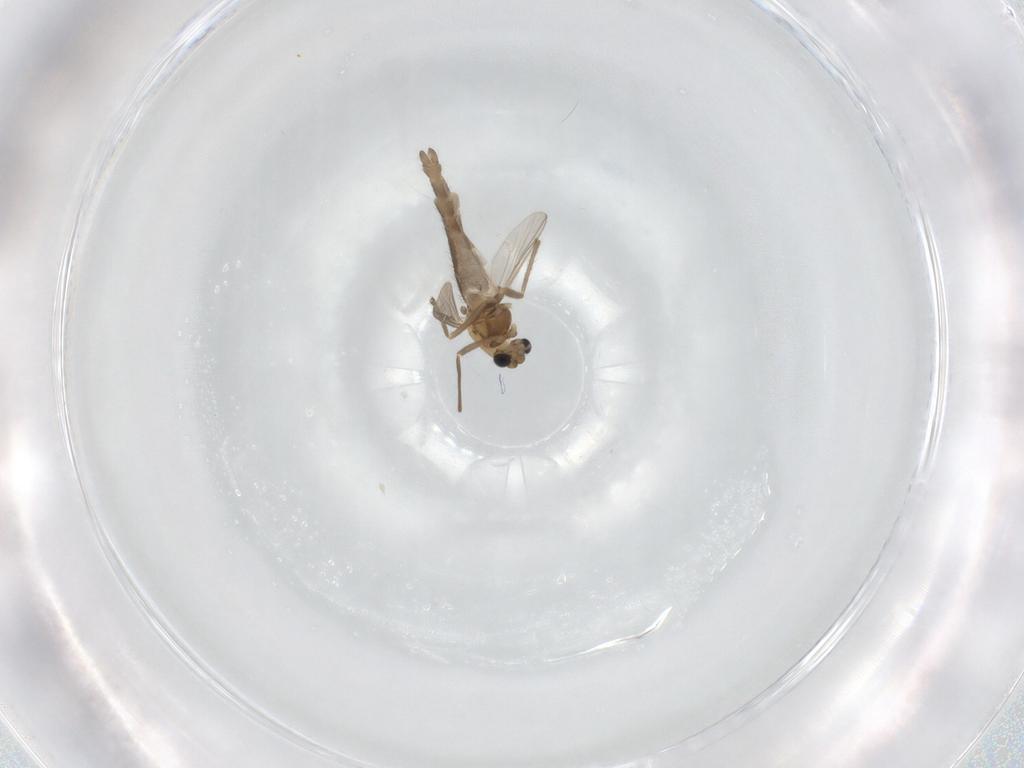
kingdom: Animalia
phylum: Arthropoda
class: Insecta
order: Diptera
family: Chironomidae
